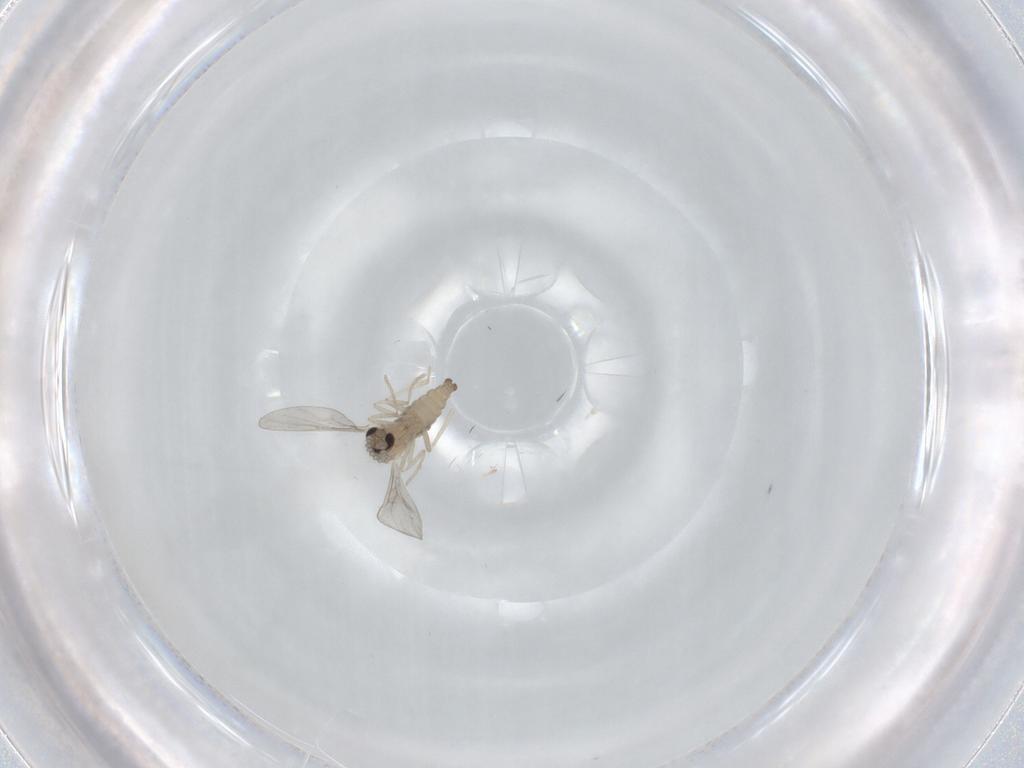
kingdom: Animalia
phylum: Arthropoda
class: Insecta
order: Diptera
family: Cecidomyiidae
